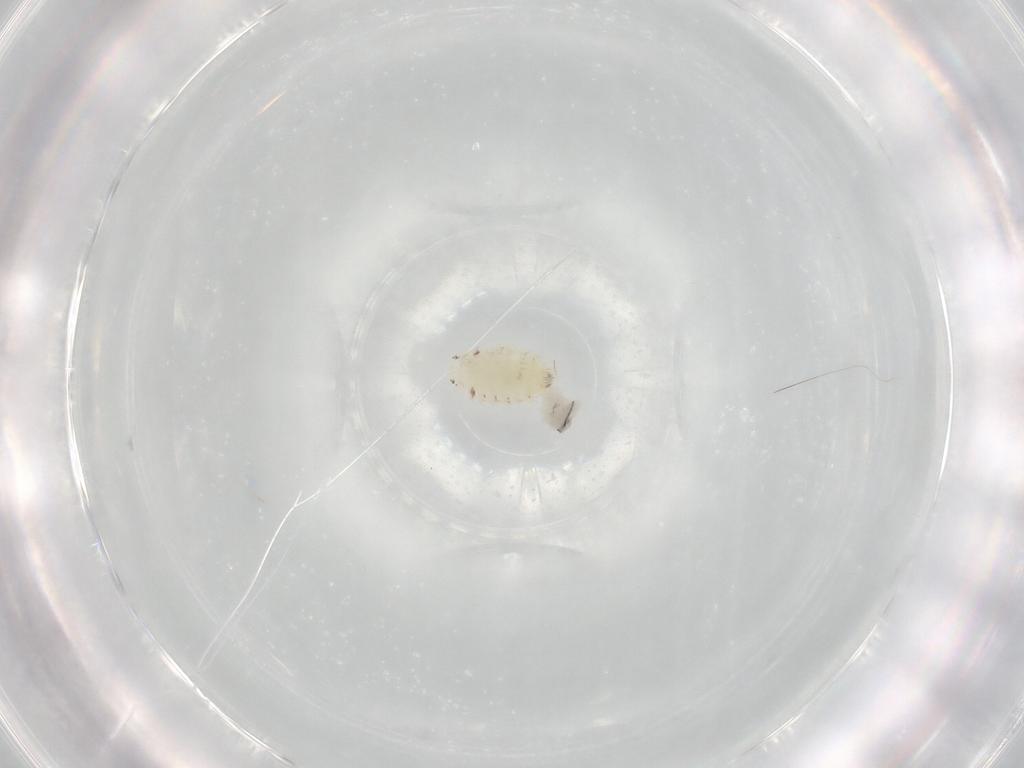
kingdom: Animalia
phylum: Arthropoda
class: Insecta
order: Psocodea
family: Lepidopsocidae
